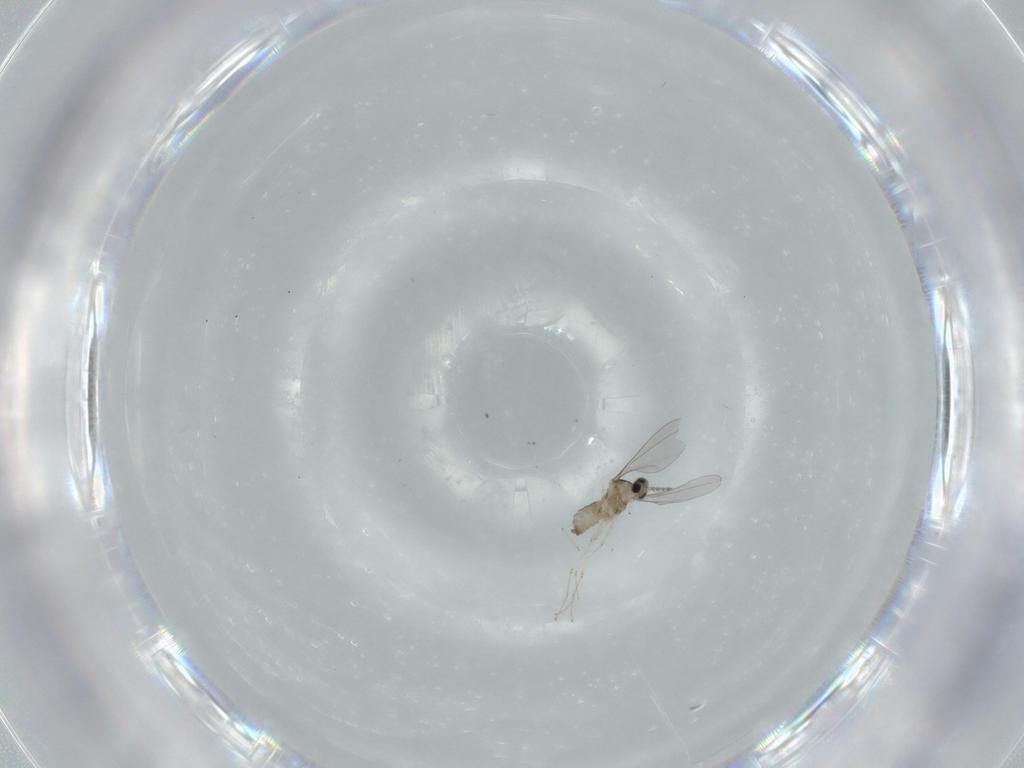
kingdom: Animalia
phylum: Arthropoda
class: Insecta
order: Diptera
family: Cecidomyiidae
